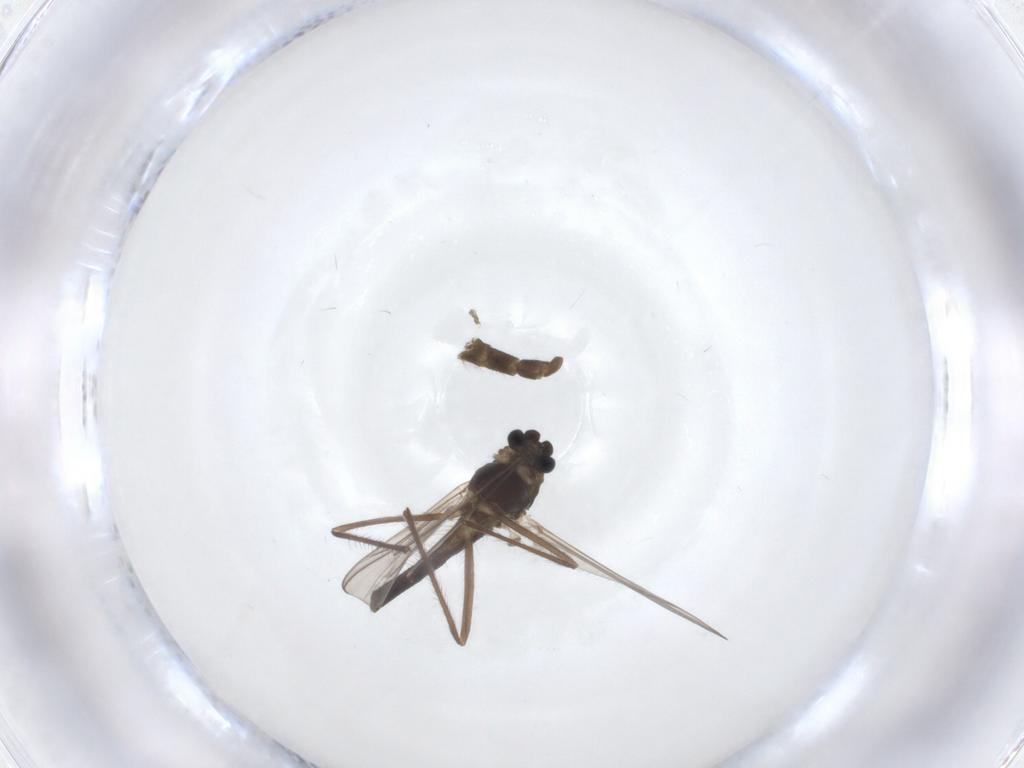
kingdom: Animalia
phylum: Arthropoda
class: Insecta
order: Diptera
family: Chironomidae
